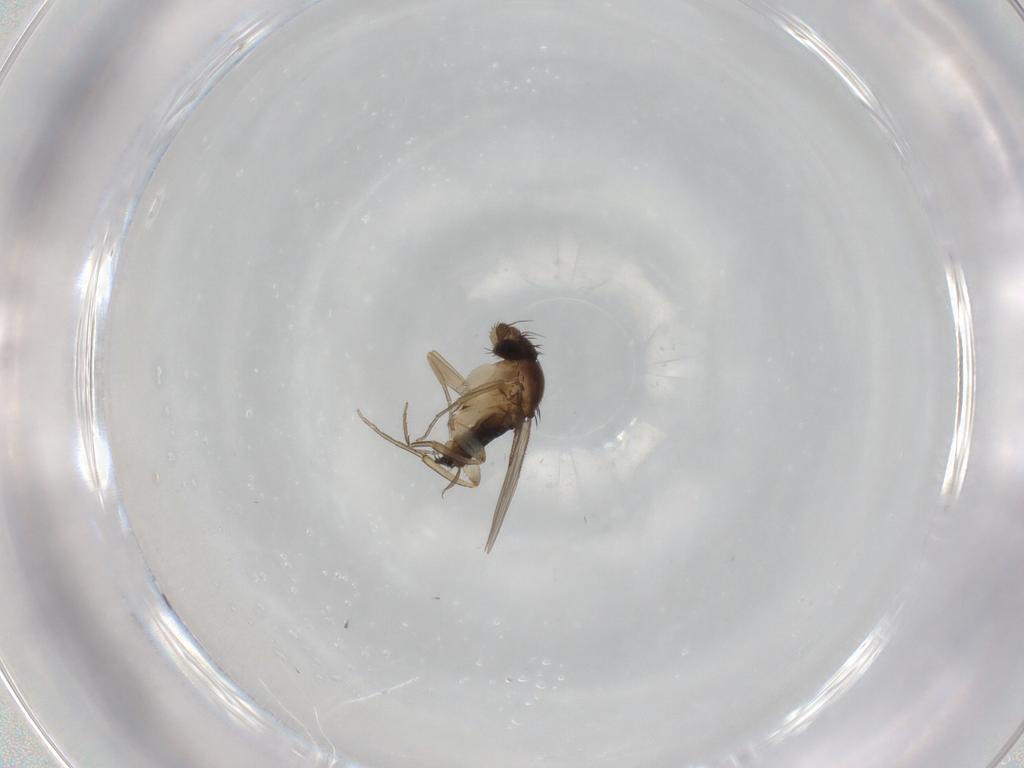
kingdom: Animalia
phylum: Arthropoda
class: Insecta
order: Diptera
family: Phoridae
